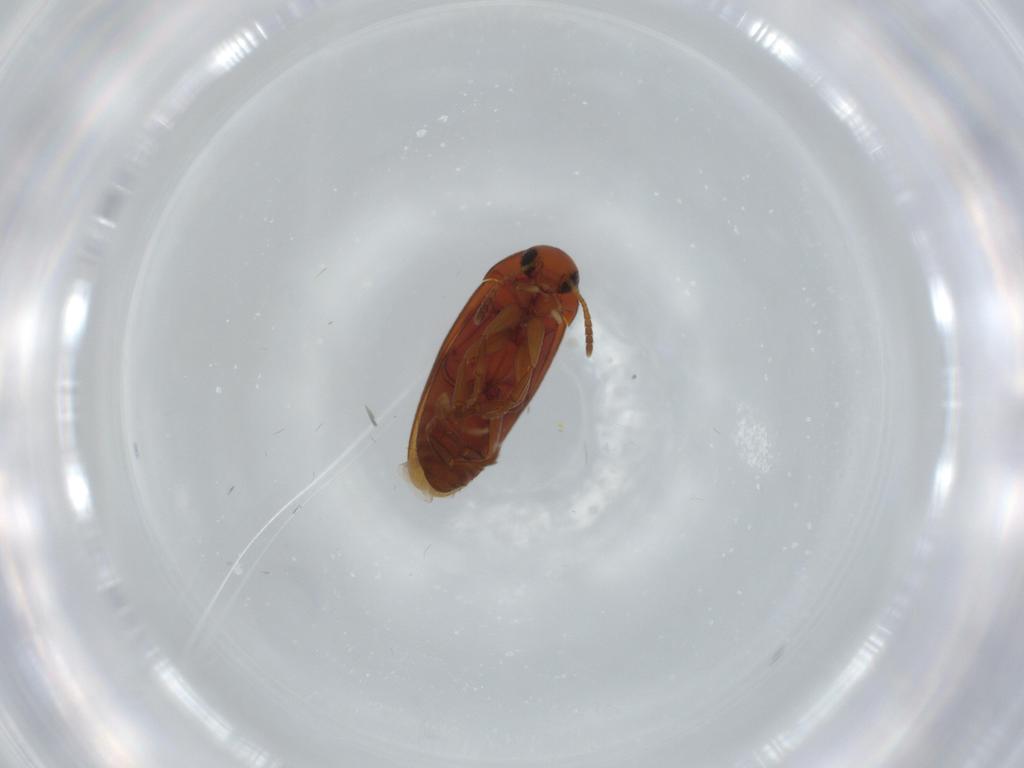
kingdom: Animalia
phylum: Arthropoda
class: Insecta
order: Coleoptera
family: Scraptiidae
